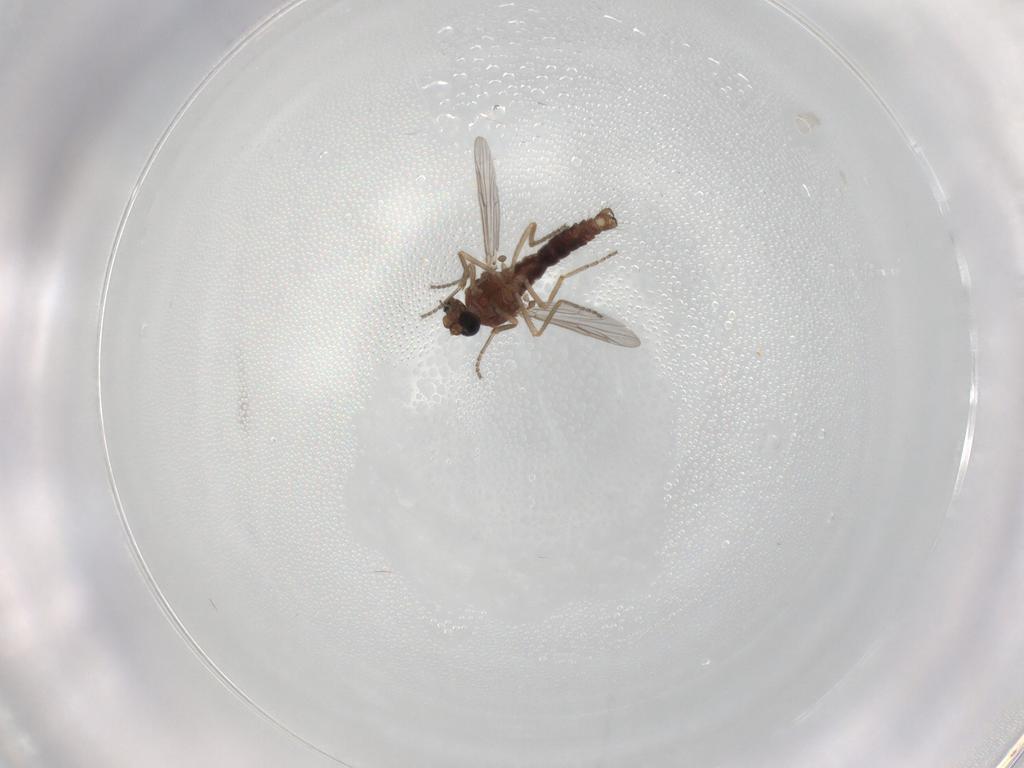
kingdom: Animalia
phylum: Arthropoda
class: Insecta
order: Diptera
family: Ceratopogonidae
